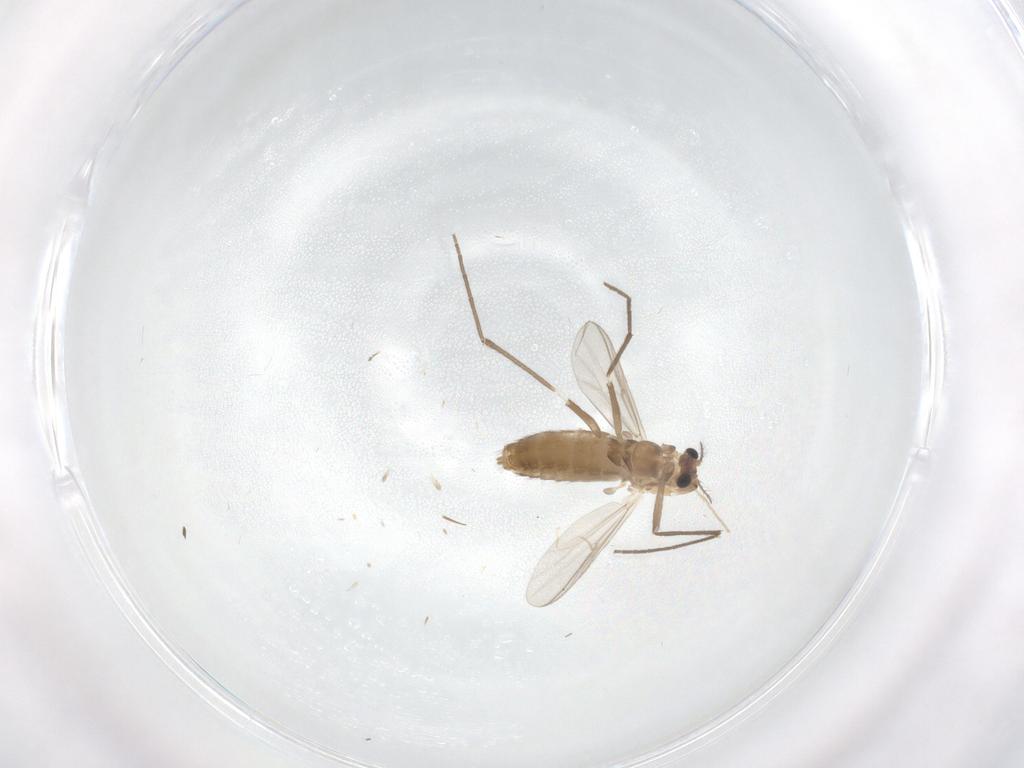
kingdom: Animalia
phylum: Arthropoda
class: Insecta
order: Diptera
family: Chironomidae
